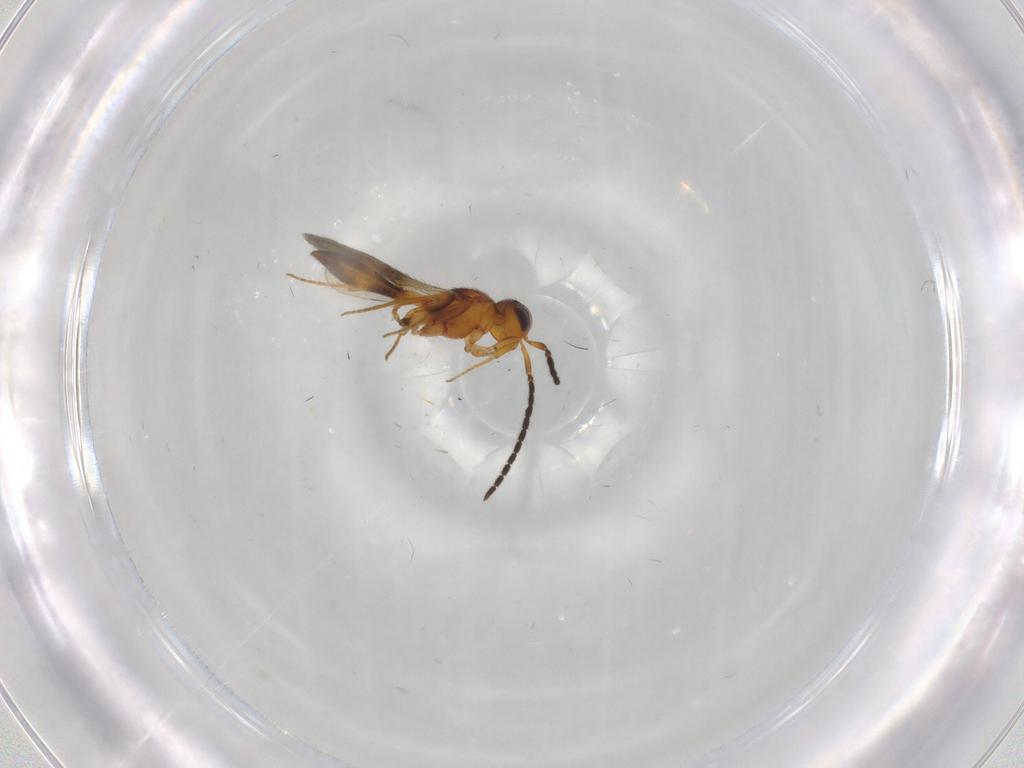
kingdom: Animalia
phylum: Arthropoda
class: Insecta
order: Hymenoptera
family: Scelionidae
